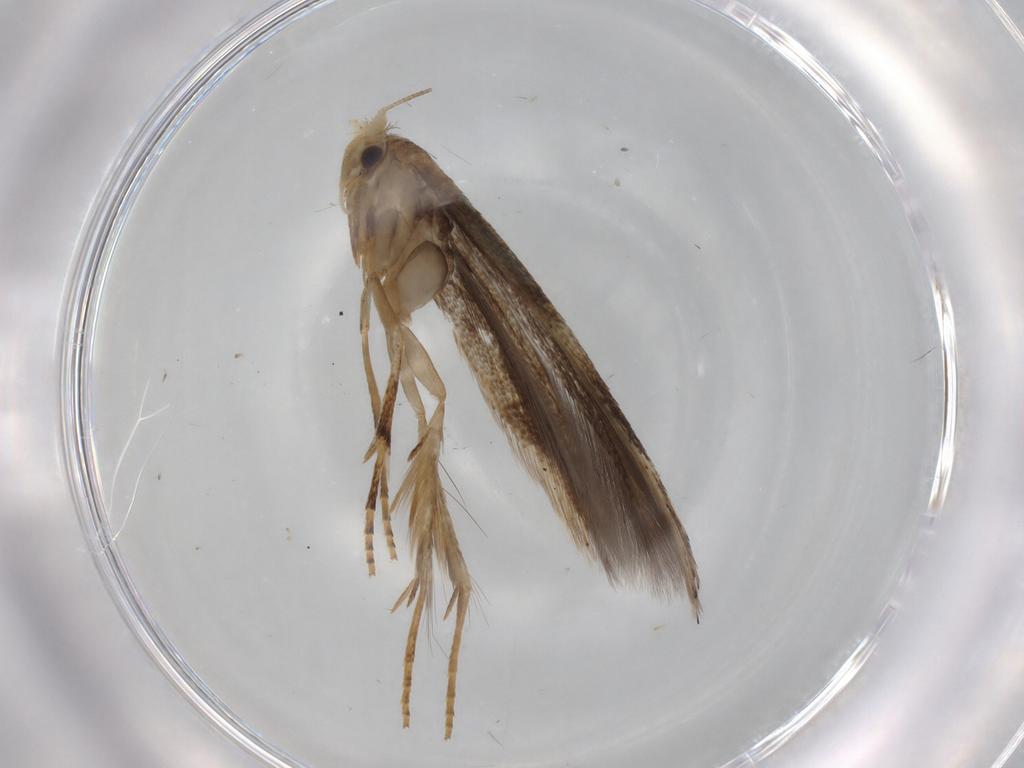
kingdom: Animalia
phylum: Arthropoda
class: Insecta
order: Lepidoptera
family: Bucculatricidae
